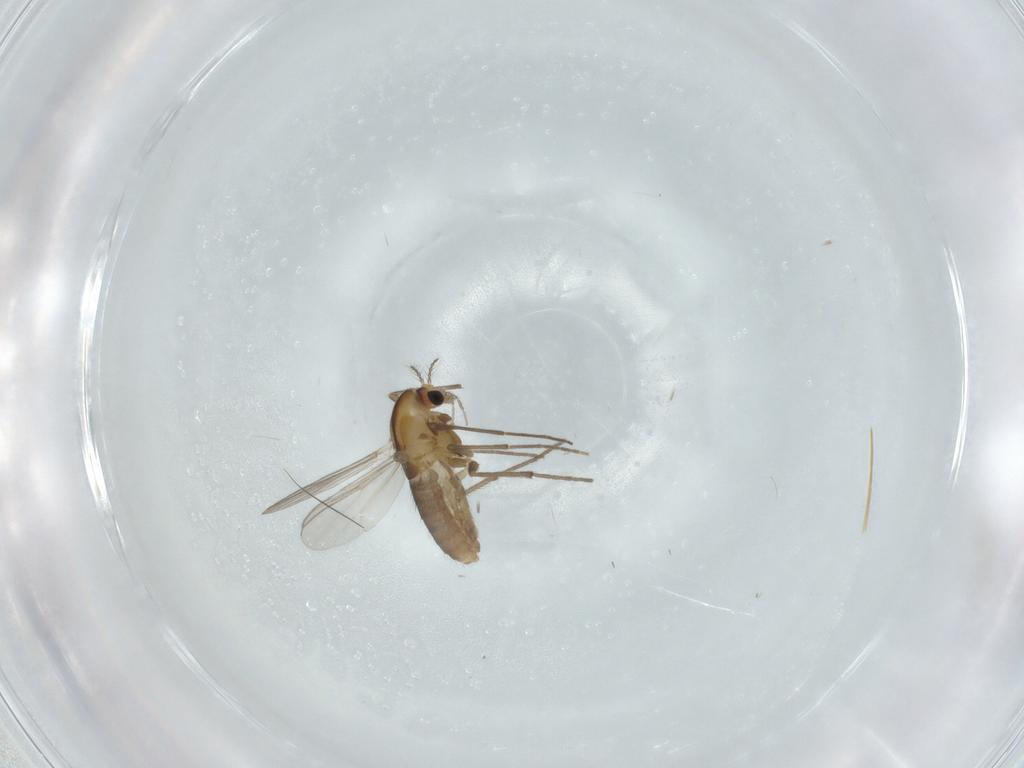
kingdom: Animalia
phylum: Arthropoda
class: Insecta
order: Diptera
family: Chironomidae
